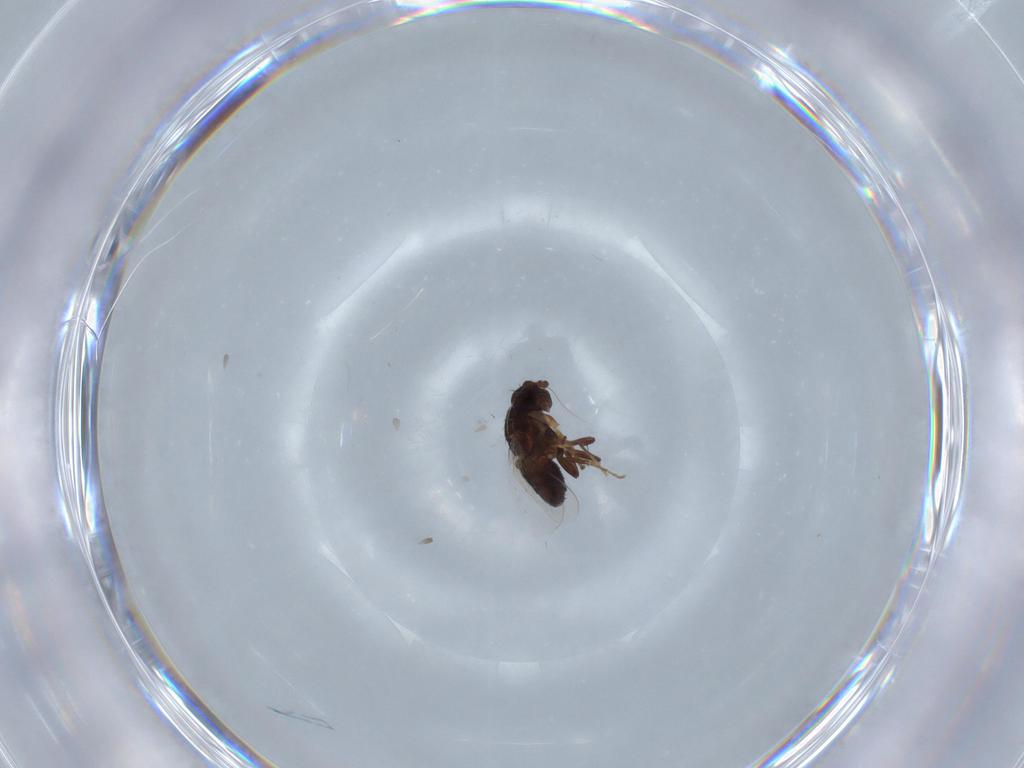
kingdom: Animalia
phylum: Arthropoda
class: Insecta
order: Diptera
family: Sphaeroceridae
